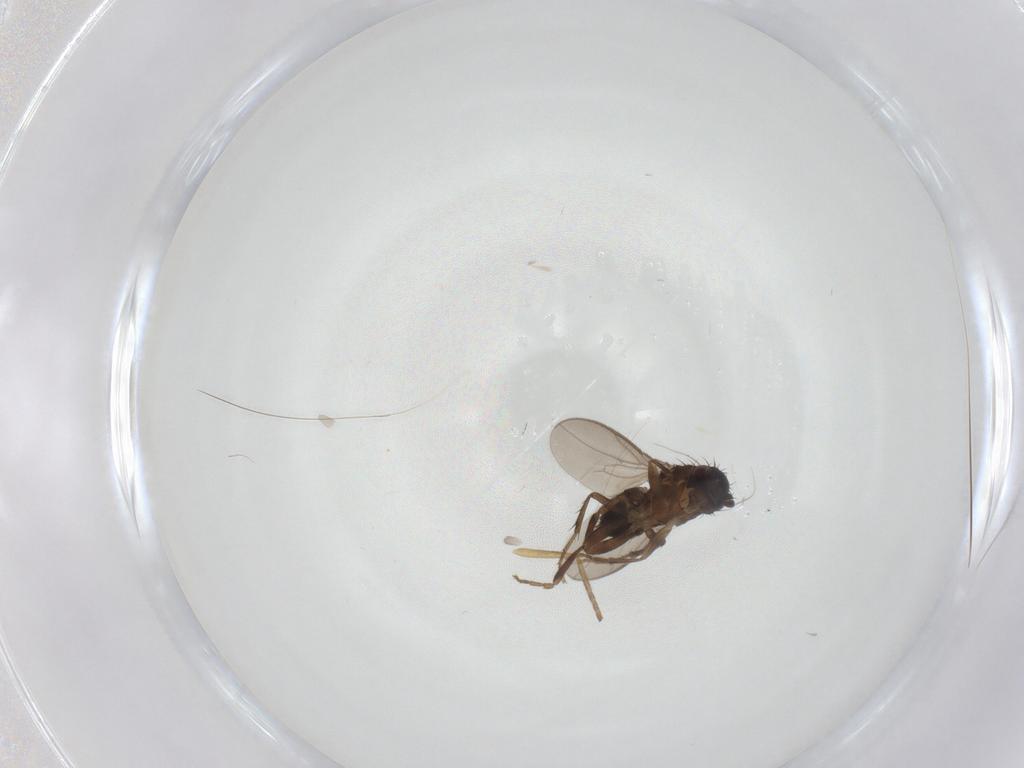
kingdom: Animalia
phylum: Arthropoda
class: Insecta
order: Diptera
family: Sphaeroceridae
